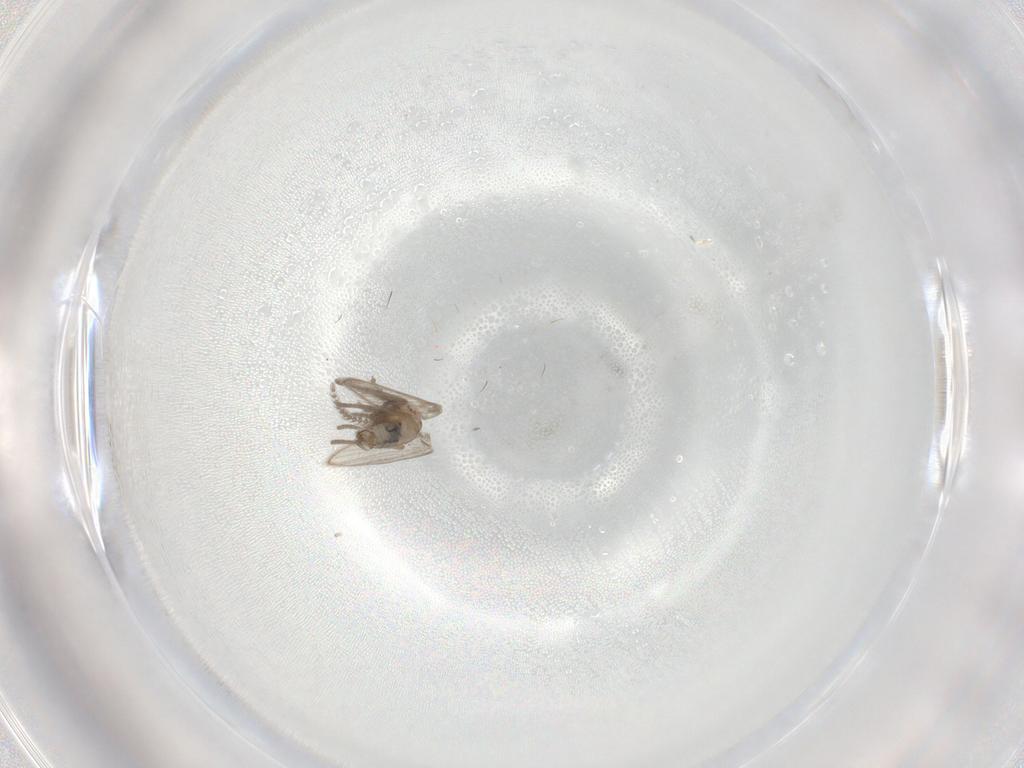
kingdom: Animalia
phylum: Arthropoda
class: Insecta
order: Diptera
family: Psychodidae
